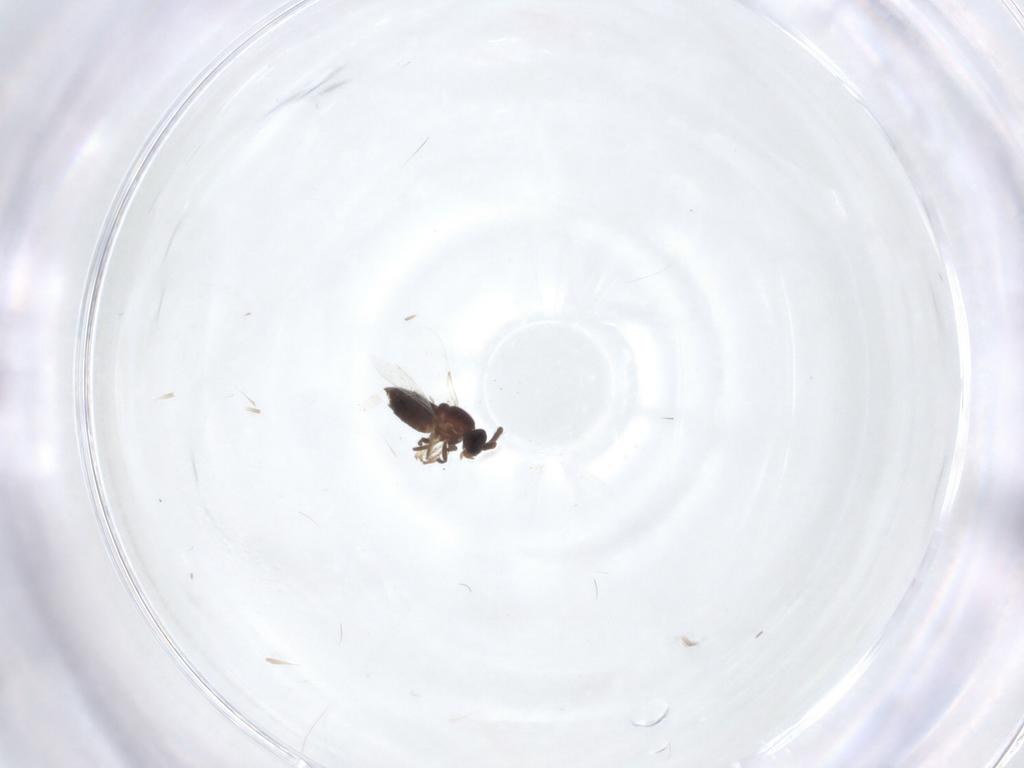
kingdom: Animalia
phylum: Arthropoda
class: Insecta
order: Diptera
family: Scatopsidae
